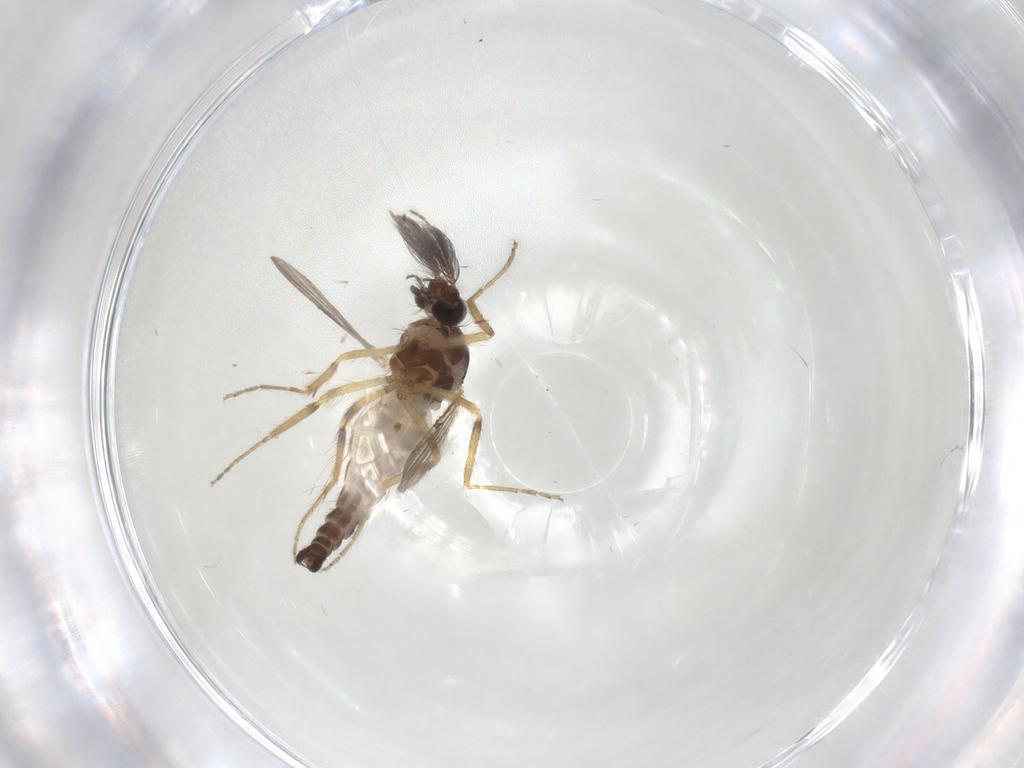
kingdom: Animalia
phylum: Arthropoda
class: Insecta
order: Diptera
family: Ceratopogonidae
